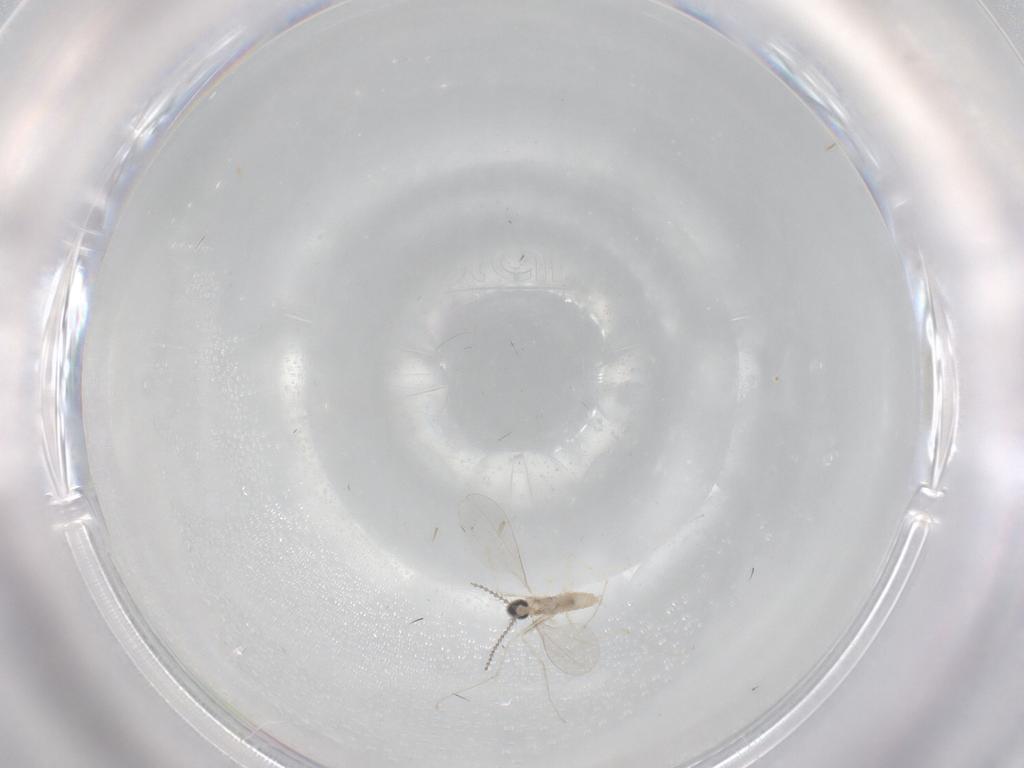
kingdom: Animalia
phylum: Arthropoda
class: Insecta
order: Diptera
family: Cecidomyiidae
